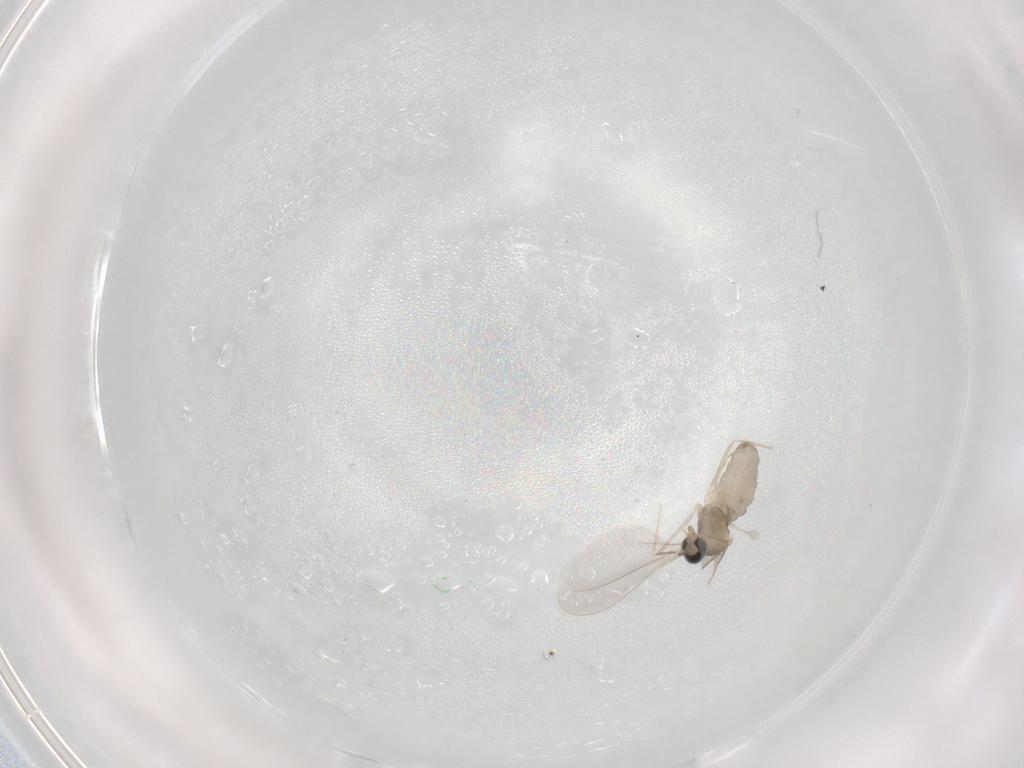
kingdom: Animalia
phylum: Arthropoda
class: Insecta
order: Diptera
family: Cecidomyiidae
